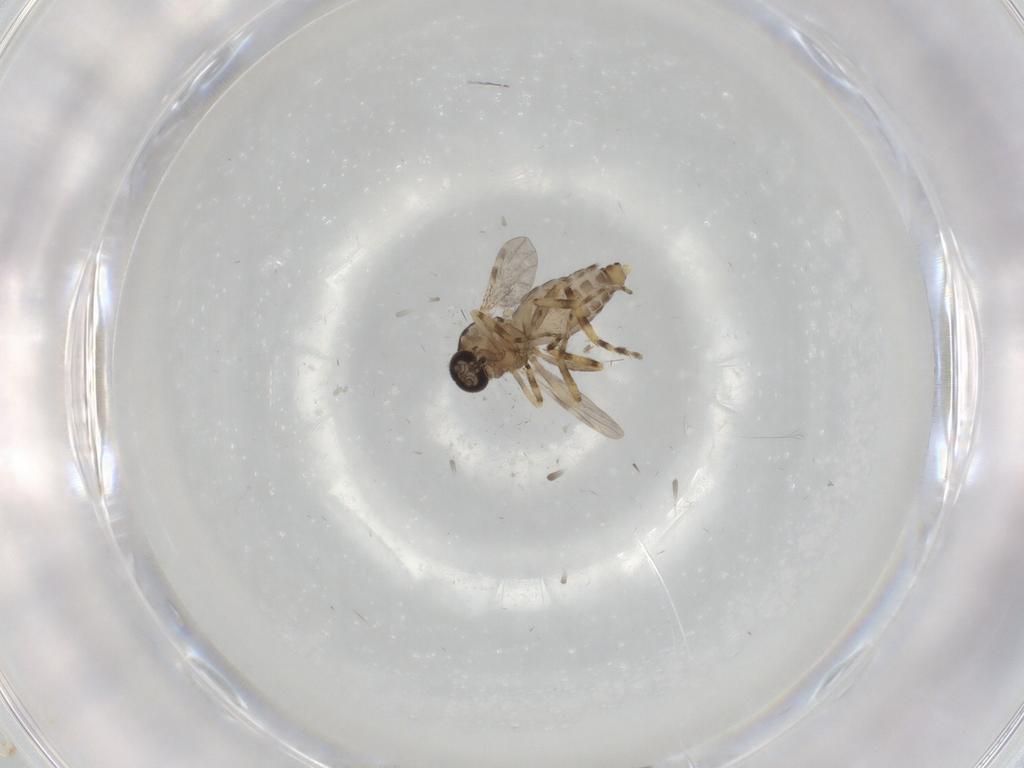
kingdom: Animalia
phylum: Arthropoda
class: Insecta
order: Diptera
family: Ceratopogonidae
